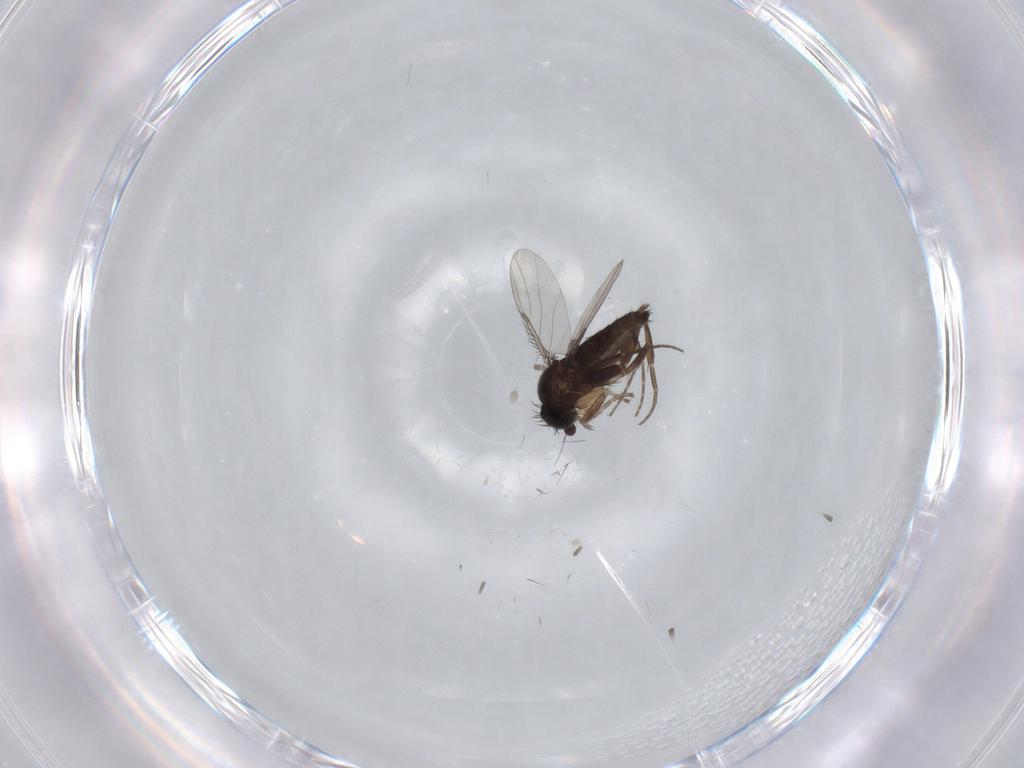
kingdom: Animalia
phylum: Arthropoda
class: Insecta
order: Diptera
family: Phoridae
